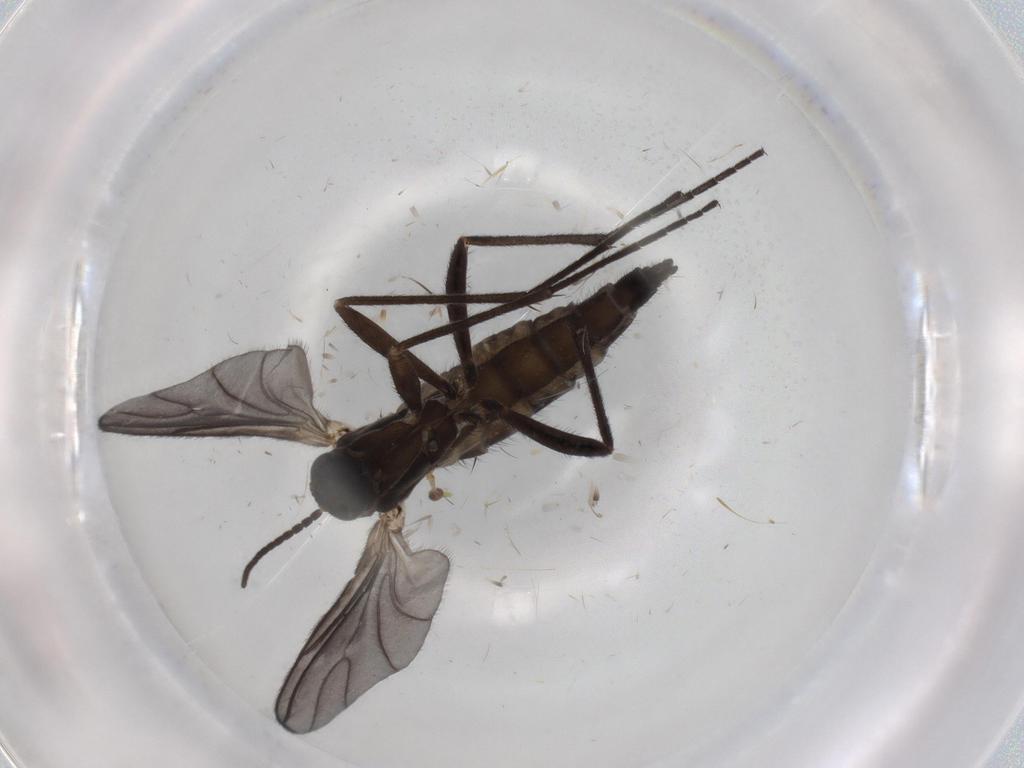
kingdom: Animalia
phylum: Arthropoda
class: Insecta
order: Diptera
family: Sciaridae
